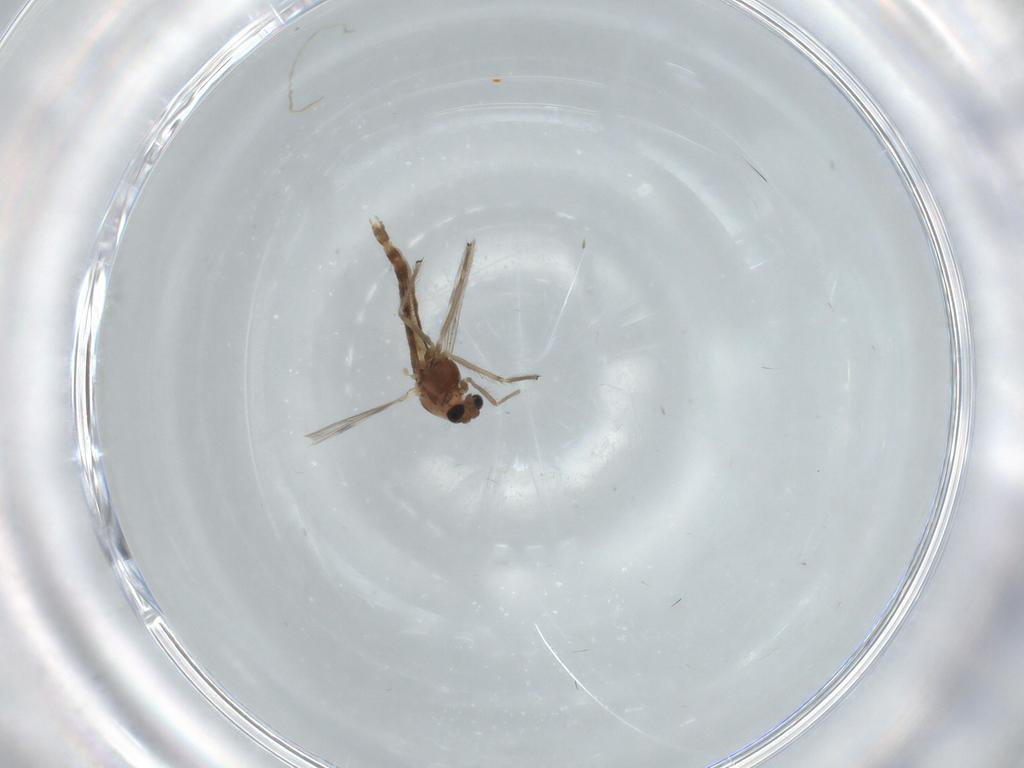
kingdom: Animalia
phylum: Arthropoda
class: Insecta
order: Diptera
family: Chironomidae
